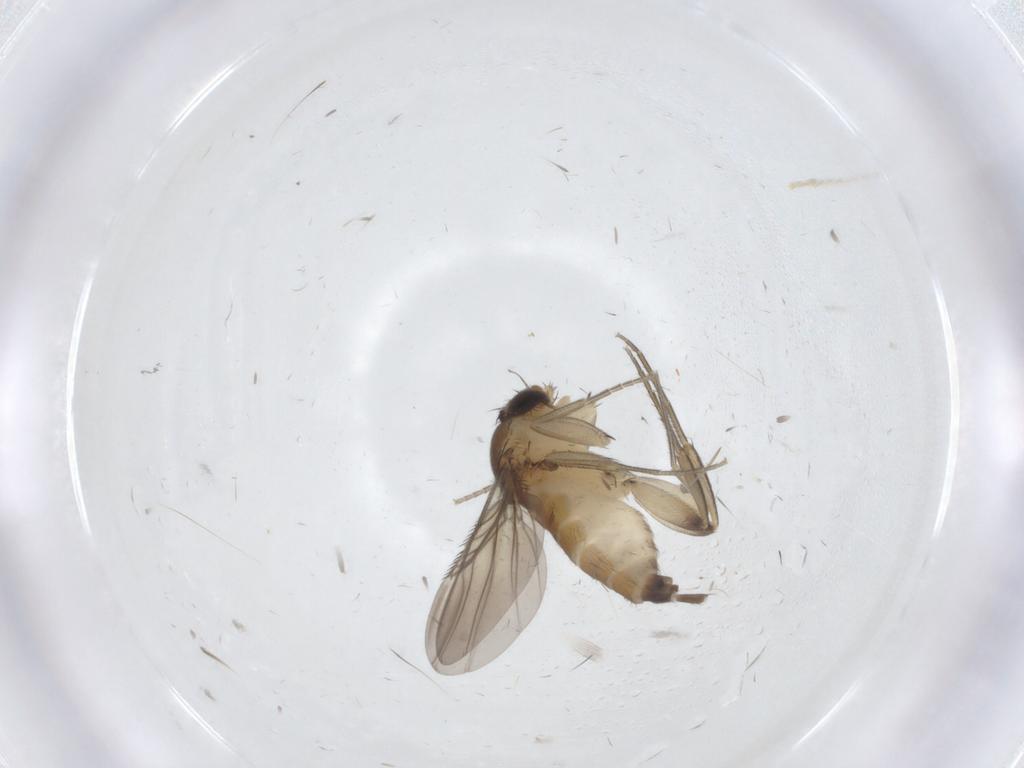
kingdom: Animalia
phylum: Arthropoda
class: Insecta
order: Diptera
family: Phoridae
